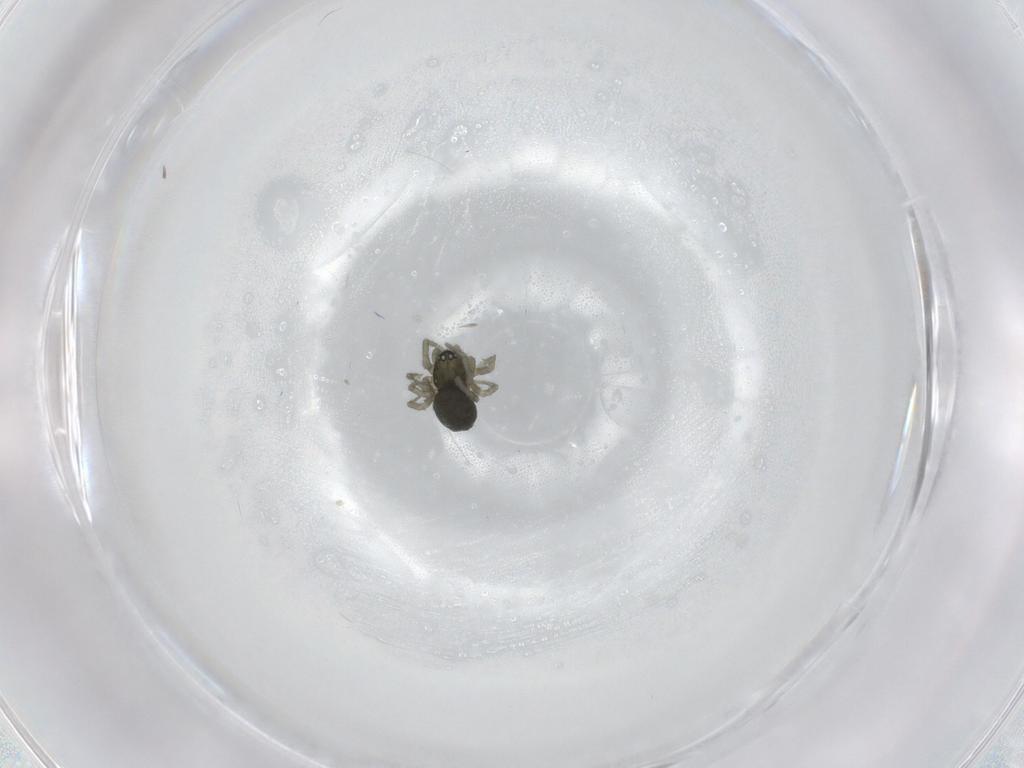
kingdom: Animalia
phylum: Arthropoda
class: Arachnida
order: Araneae
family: Linyphiidae
